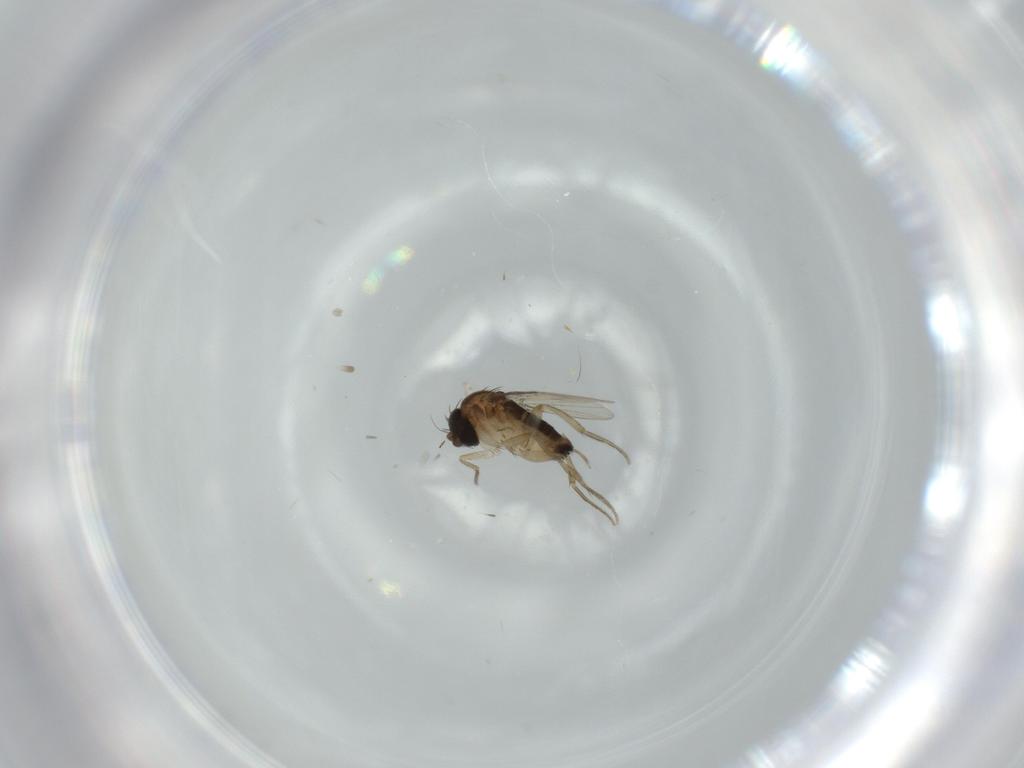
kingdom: Animalia
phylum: Arthropoda
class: Insecta
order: Diptera
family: Phoridae
